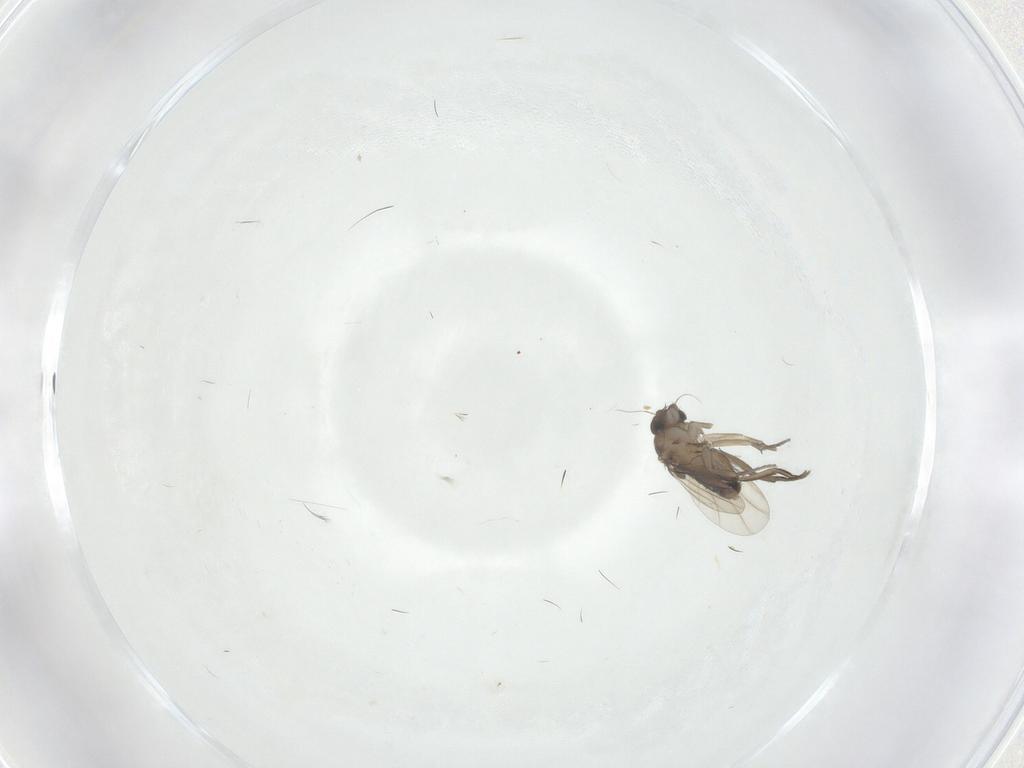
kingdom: Animalia
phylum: Arthropoda
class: Insecta
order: Diptera
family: Phoridae
